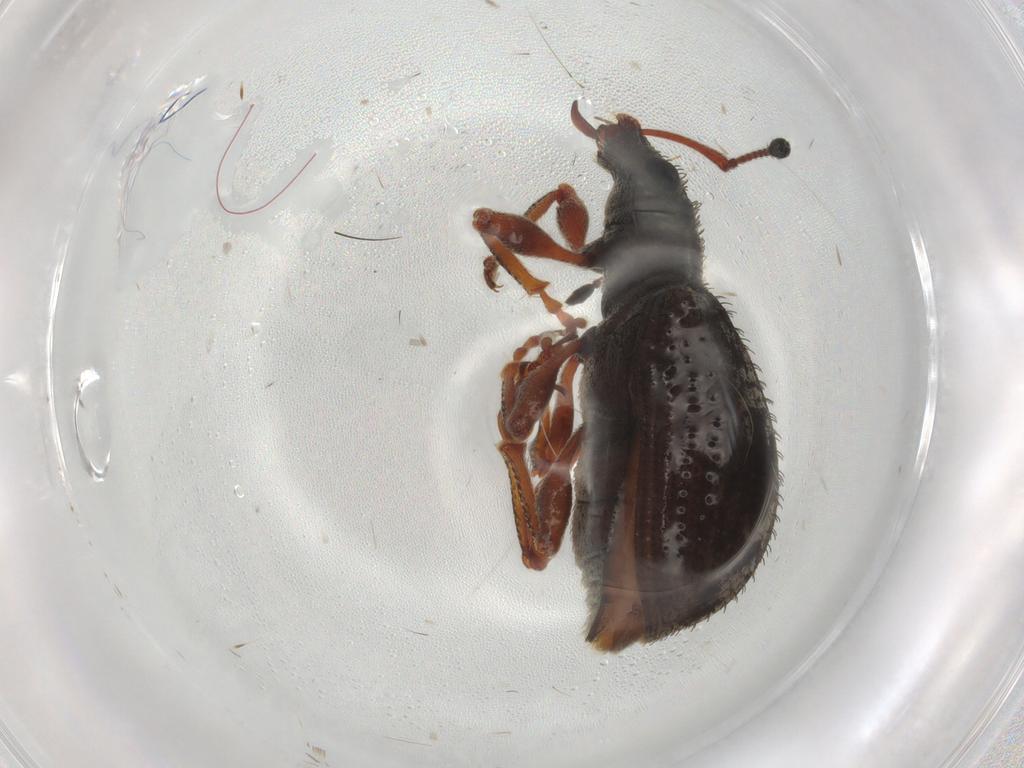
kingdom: Animalia
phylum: Arthropoda
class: Insecta
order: Coleoptera
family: Curculionidae
